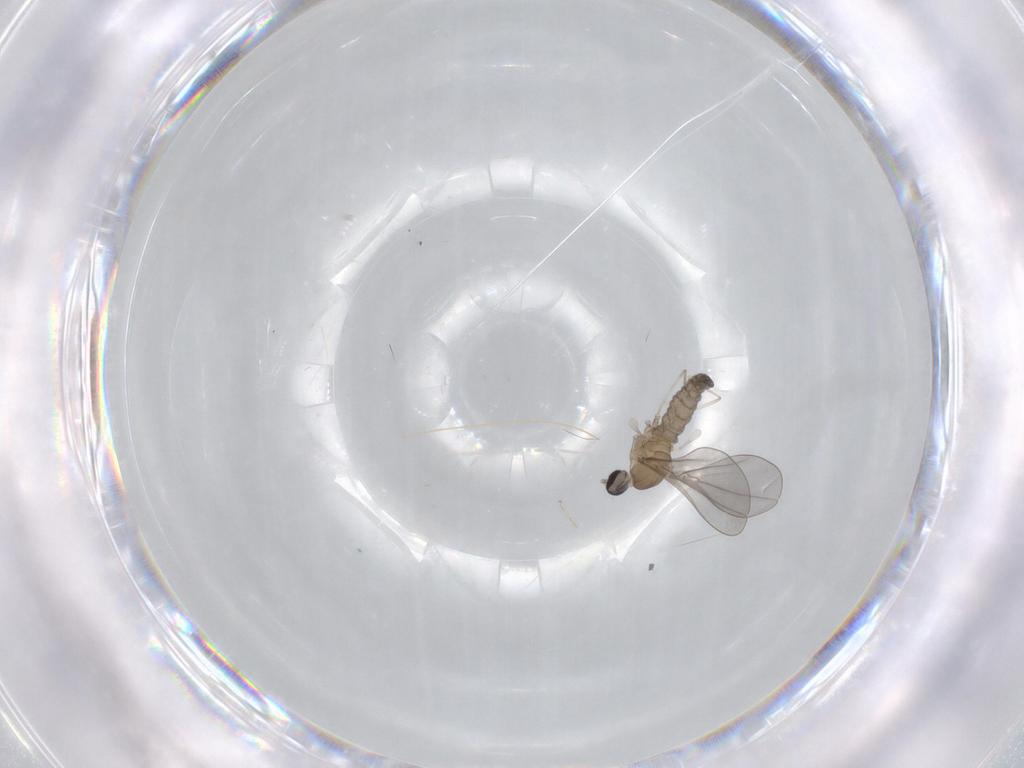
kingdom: Animalia
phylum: Arthropoda
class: Insecta
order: Diptera
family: Cecidomyiidae
